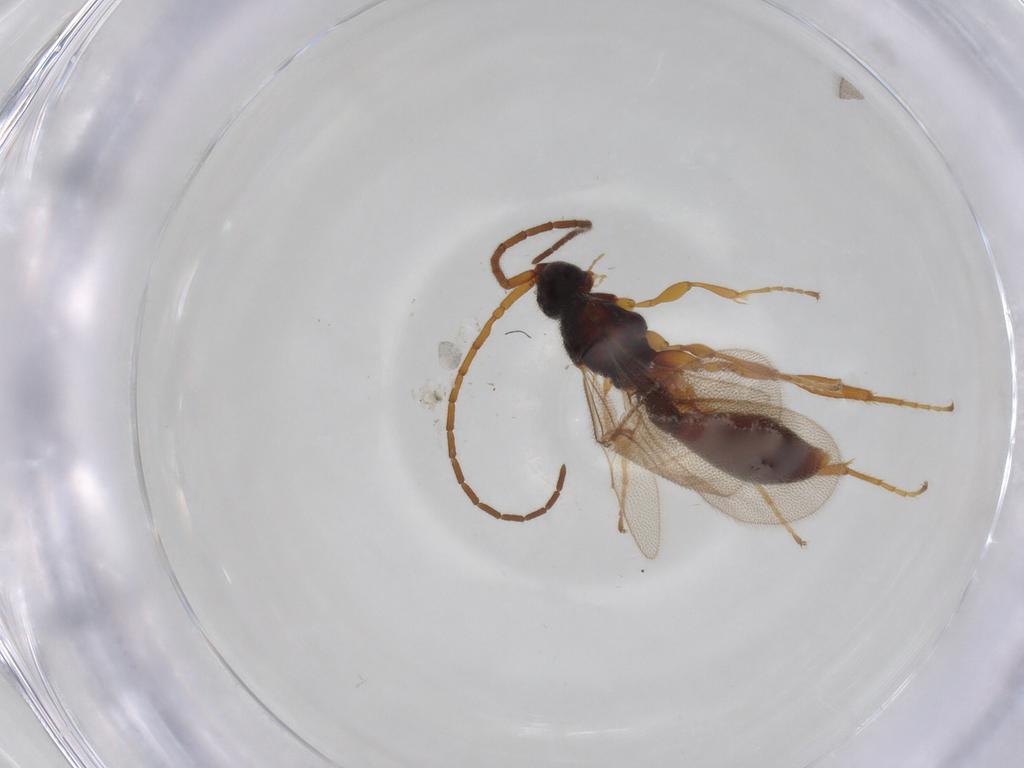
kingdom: Animalia
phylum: Arthropoda
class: Insecta
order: Hymenoptera
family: Diapriidae
